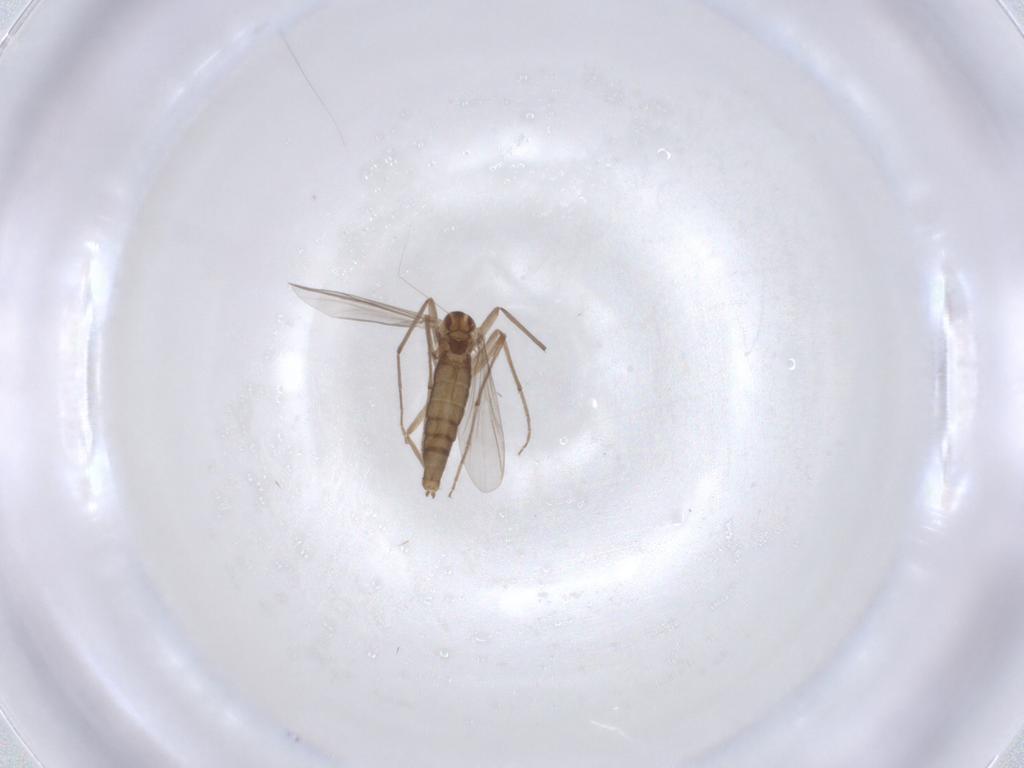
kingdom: Animalia
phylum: Arthropoda
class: Insecta
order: Diptera
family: Chironomidae
